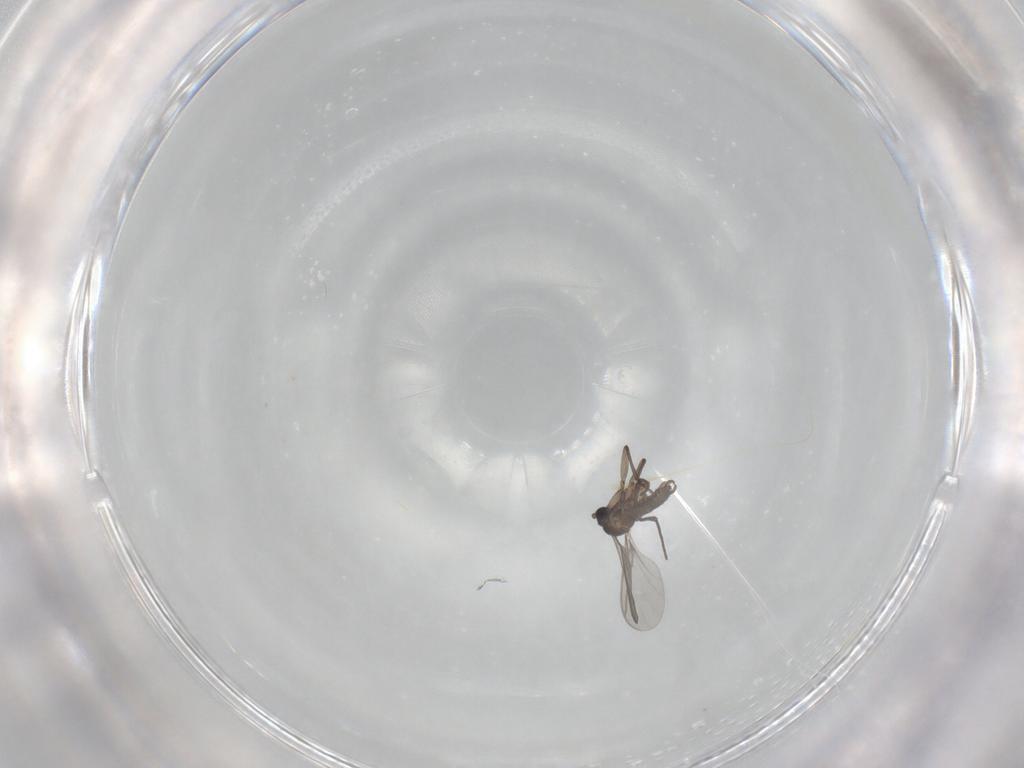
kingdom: Animalia
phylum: Arthropoda
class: Insecta
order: Diptera
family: Sciaridae
